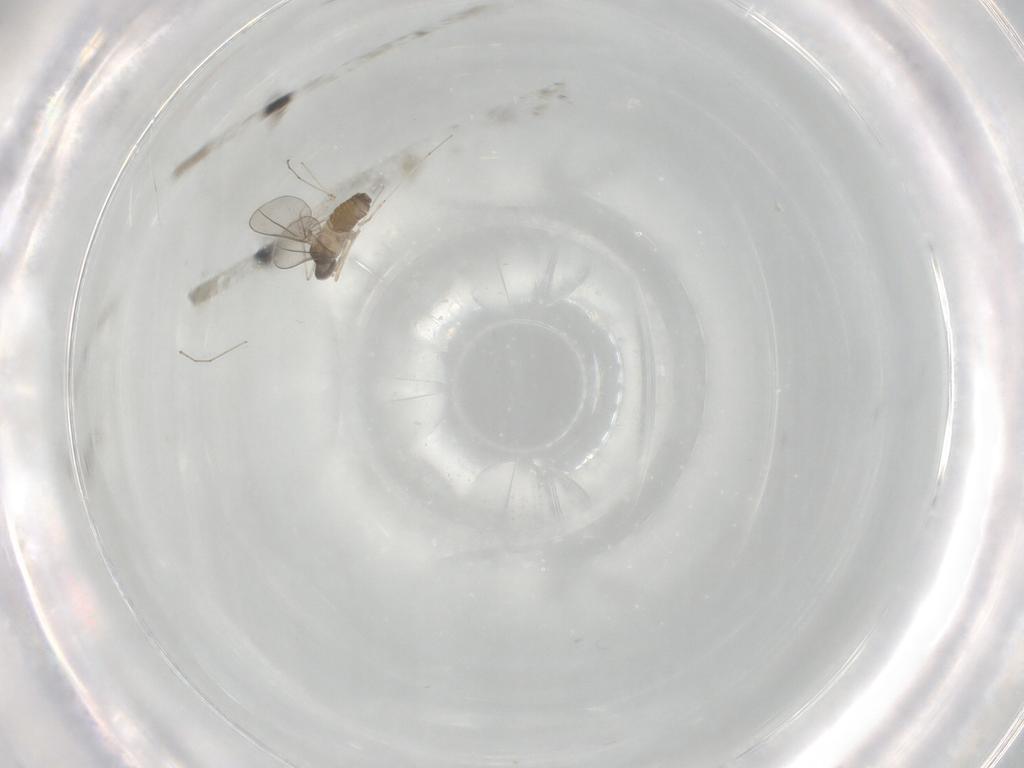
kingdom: Animalia
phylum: Arthropoda
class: Insecta
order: Diptera
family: Cecidomyiidae
